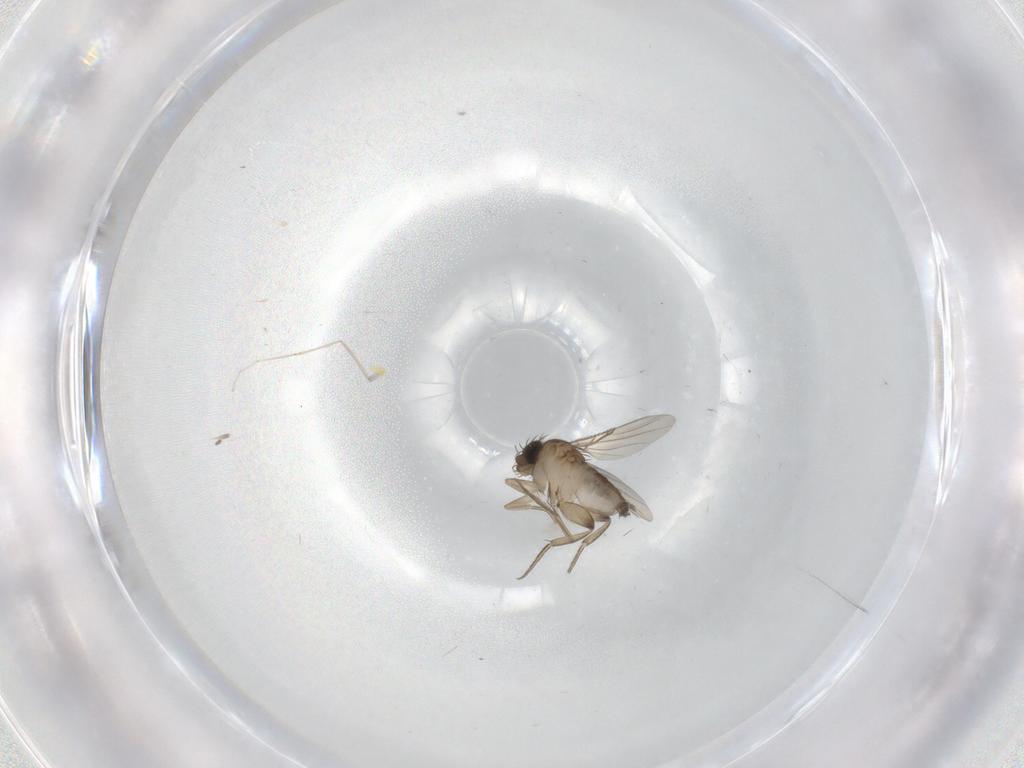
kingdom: Animalia
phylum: Arthropoda
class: Insecta
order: Diptera
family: Phoridae
